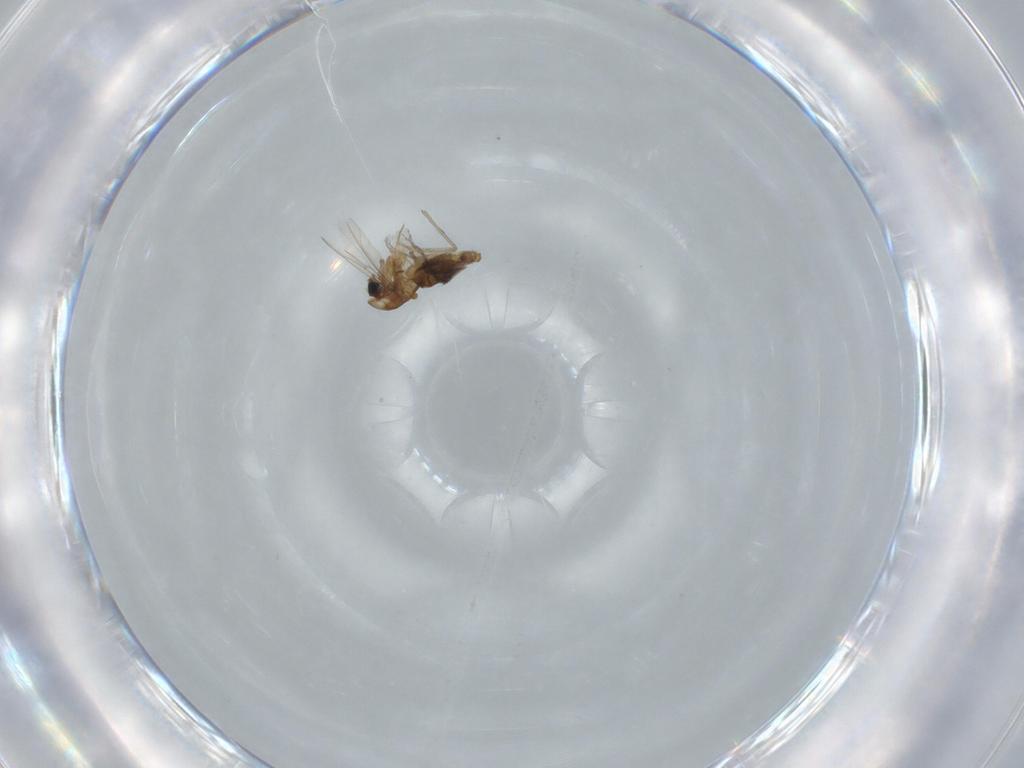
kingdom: Animalia
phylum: Arthropoda
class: Insecta
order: Diptera
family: Chironomidae
